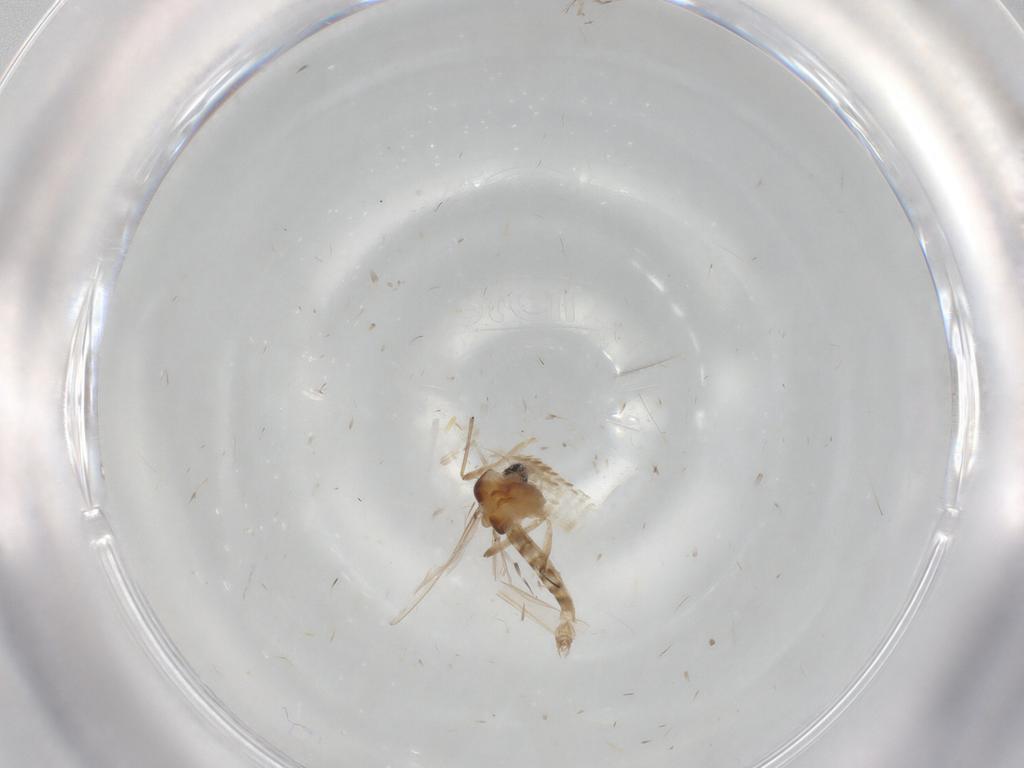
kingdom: Animalia
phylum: Arthropoda
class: Insecta
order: Diptera
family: Chironomidae
